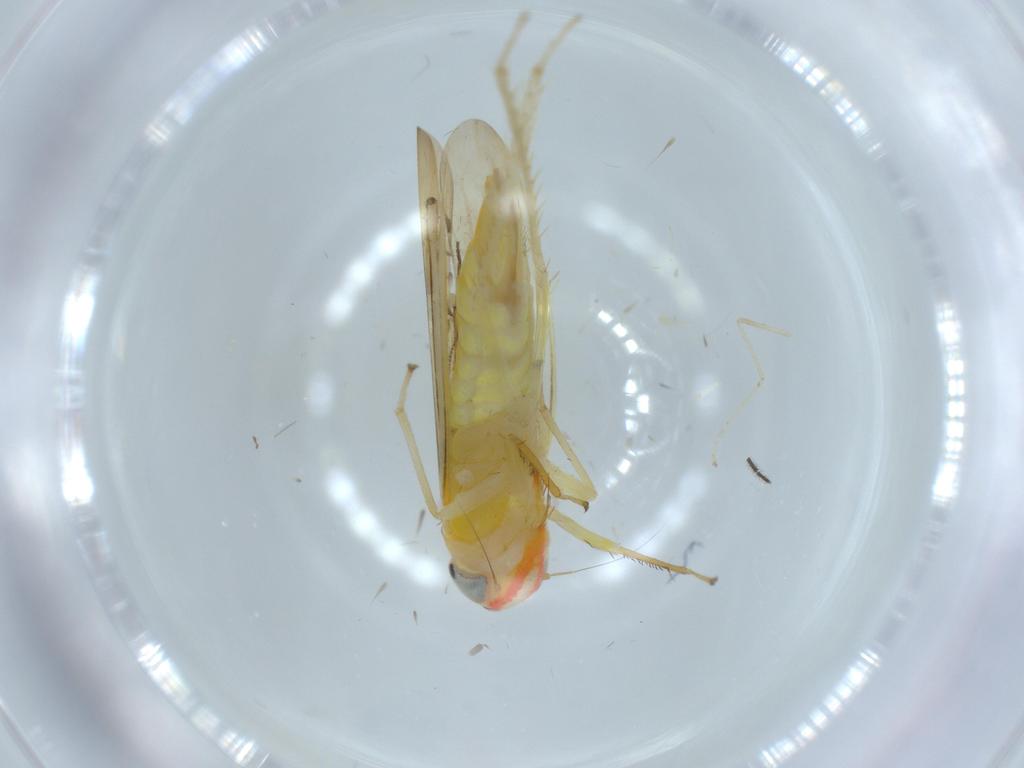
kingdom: Animalia
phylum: Arthropoda
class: Insecta
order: Hemiptera
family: Cicadellidae
